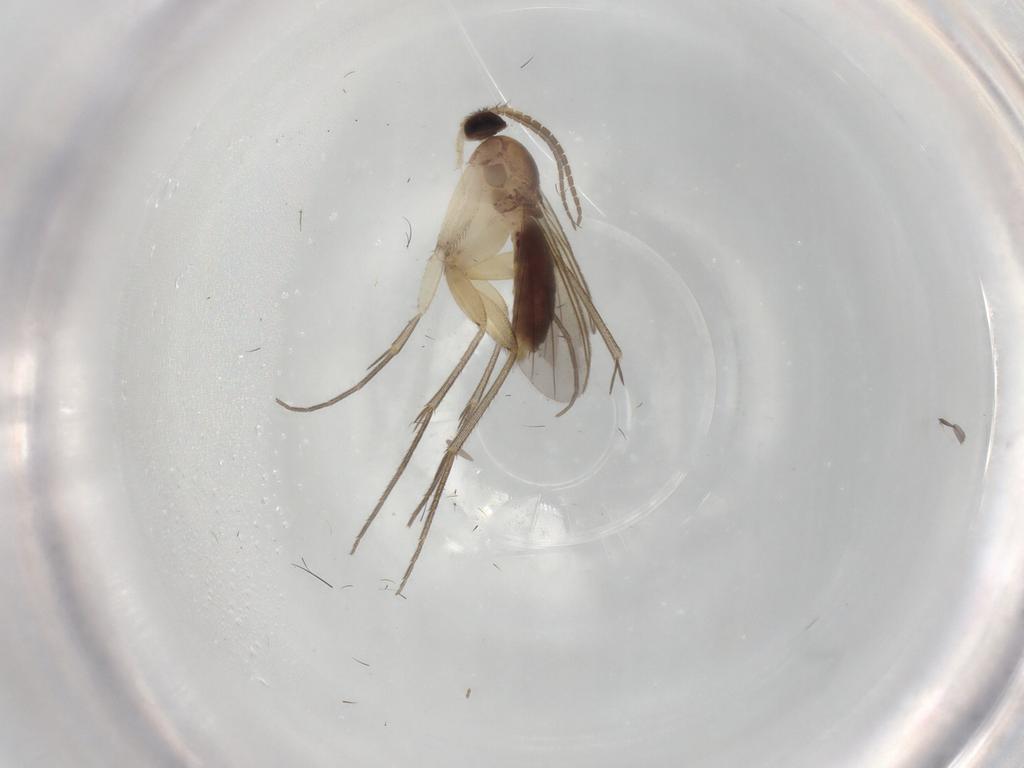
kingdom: Animalia
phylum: Arthropoda
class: Insecta
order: Diptera
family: Mycetophilidae
